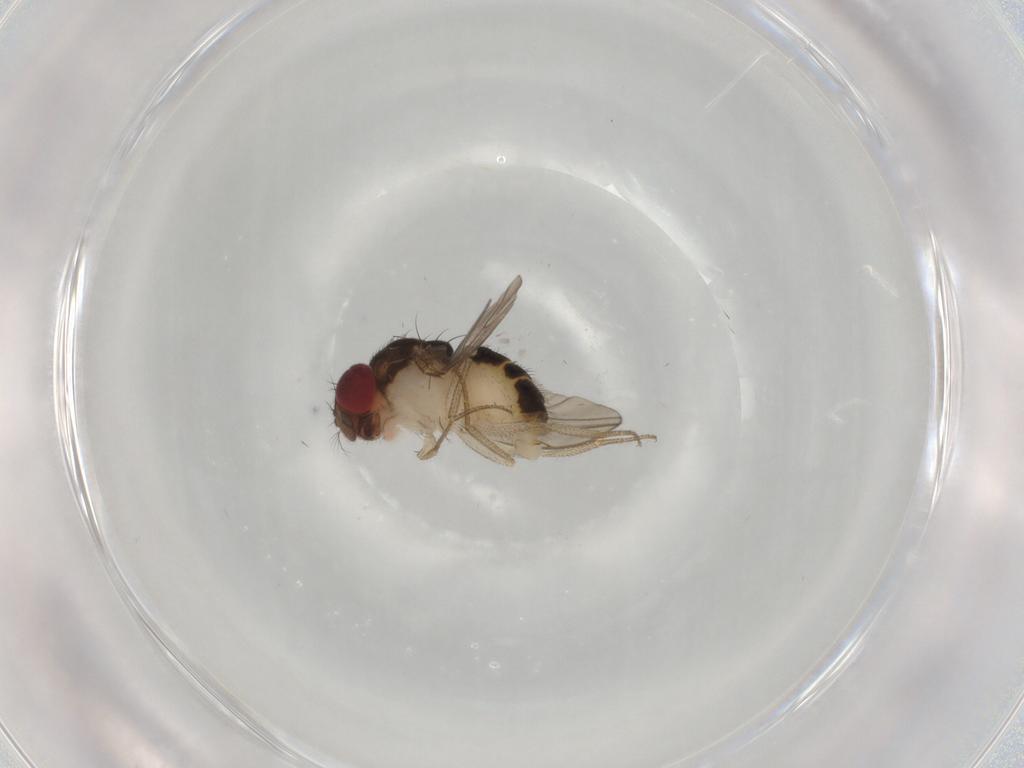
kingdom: Animalia
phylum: Arthropoda
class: Insecta
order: Diptera
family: Drosophilidae
